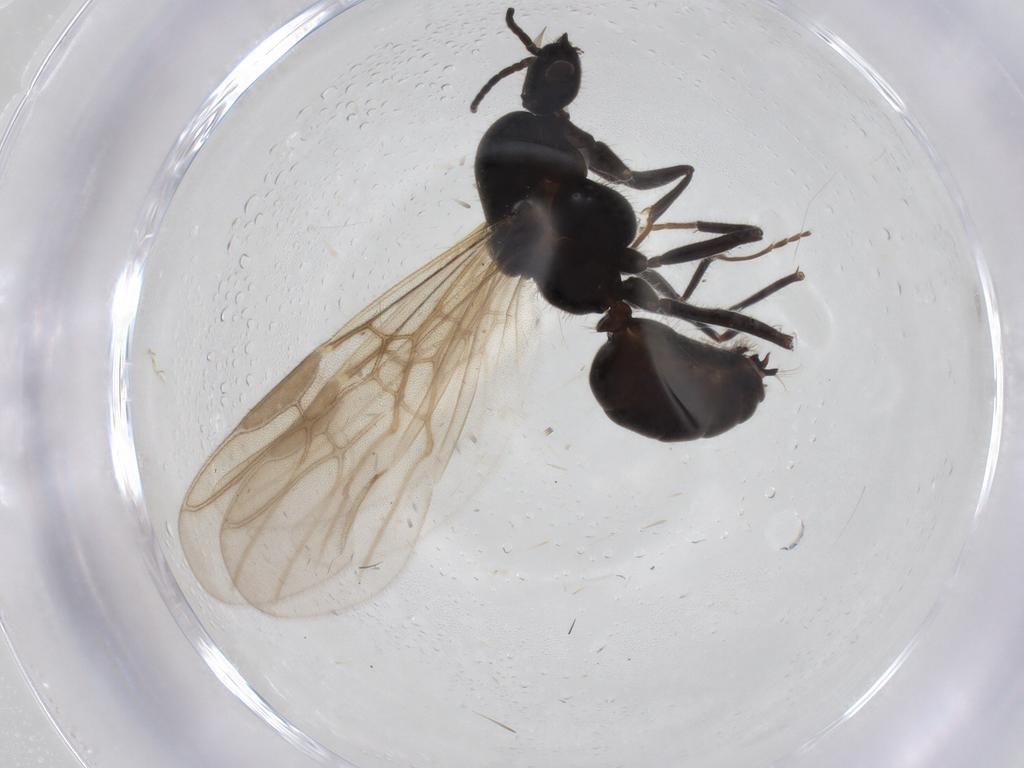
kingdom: Animalia
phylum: Arthropoda
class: Insecta
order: Hymenoptera
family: Formicidae
